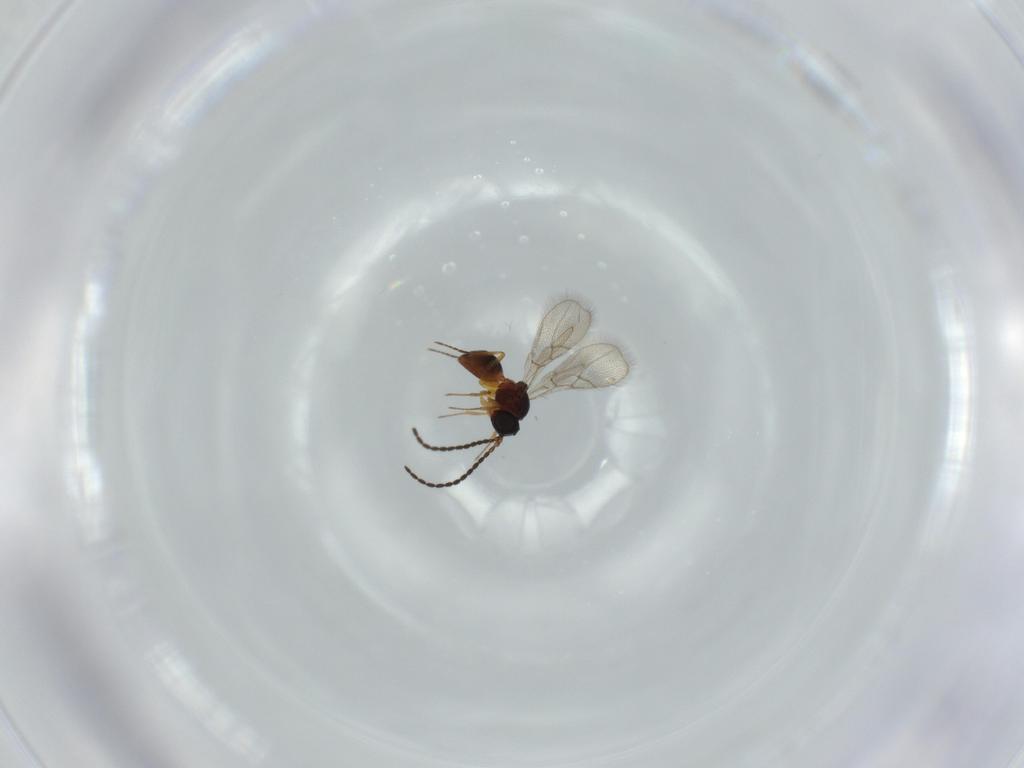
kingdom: Animalia
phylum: Arthropoda
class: Insecta
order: Hymenoptera
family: Figitidae
